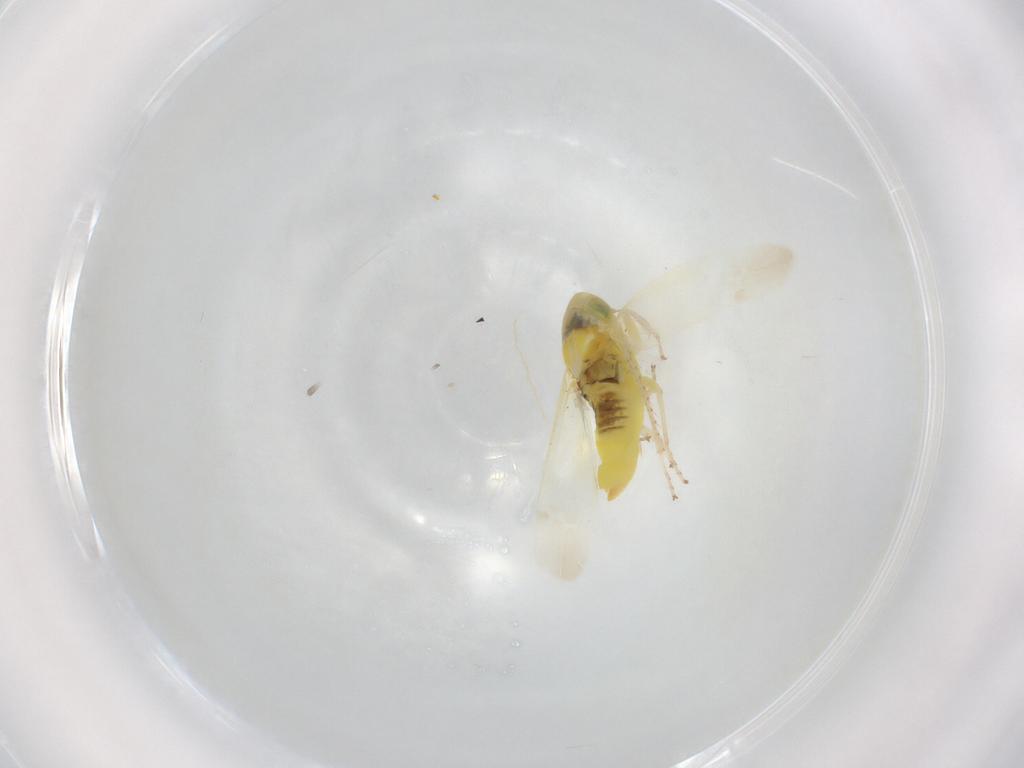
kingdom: Animalia
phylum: Arthropoda
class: Insecta
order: Hemiptera
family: Cicadellidae
